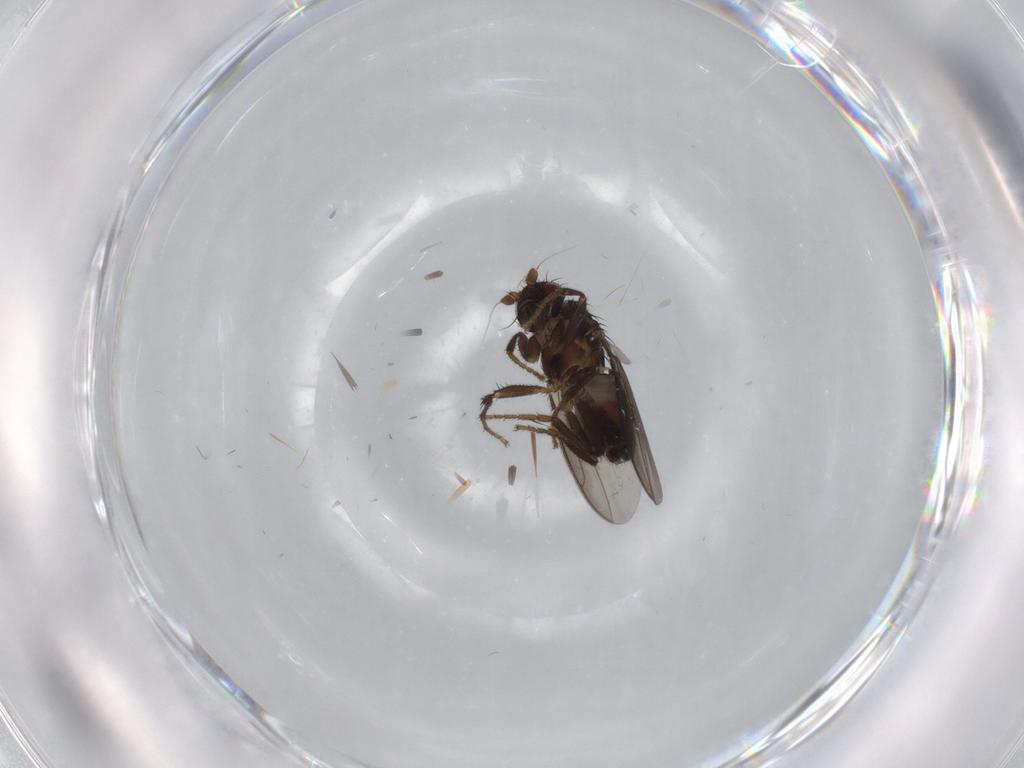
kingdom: Animalia
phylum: Arthropoda
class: Insecta
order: Diptera
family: Sphaeroceridae
